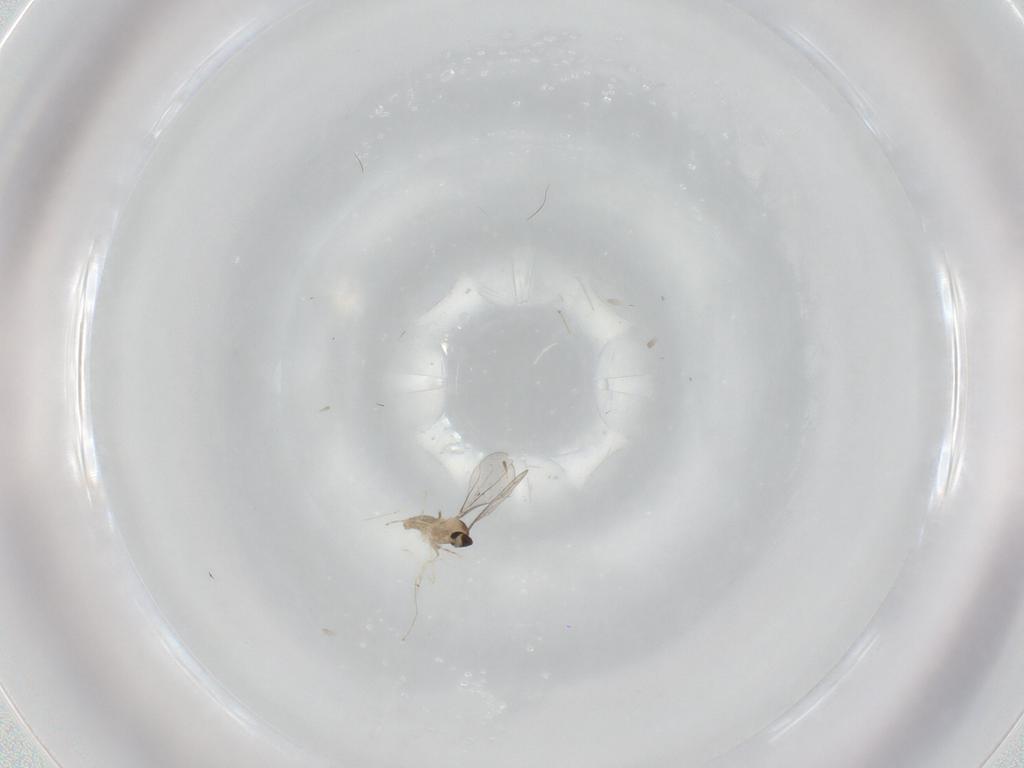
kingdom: Animalia
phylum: Arthropoda
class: Insecta
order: Diptera
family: Cecidomyiidae
